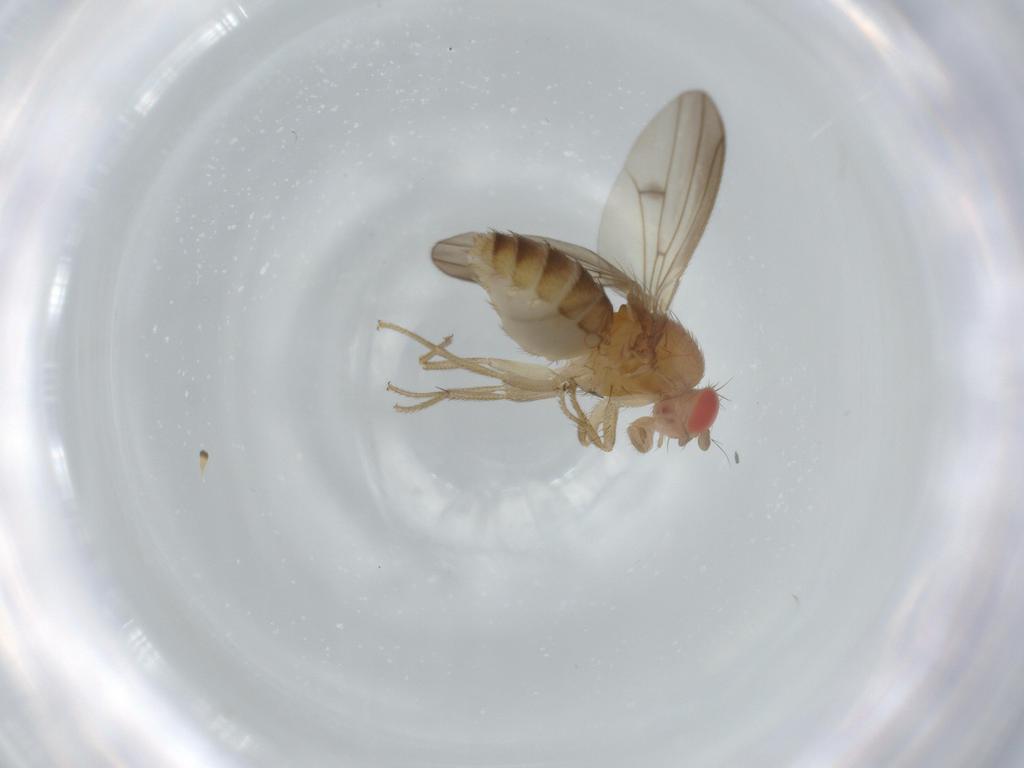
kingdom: Animalia
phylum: Arthropoda
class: Insecta
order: Diptera
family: Drosophilidae
